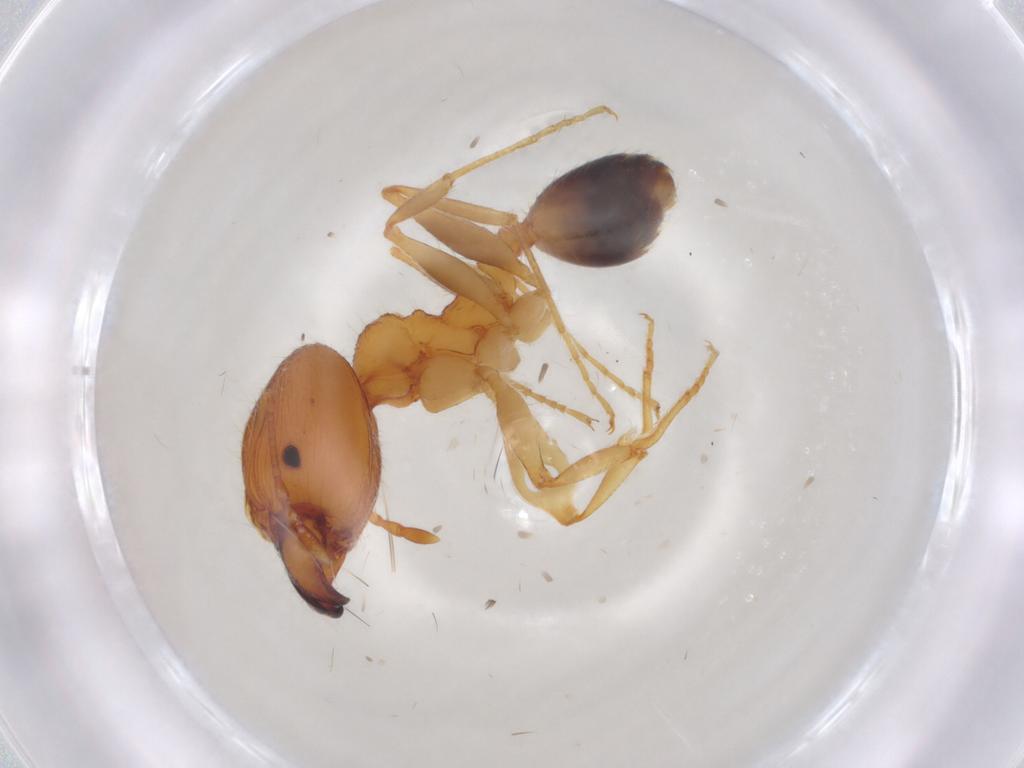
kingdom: Animalia
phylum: Arthropoda
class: Insecta
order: Hymenoptera
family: Formicidae
